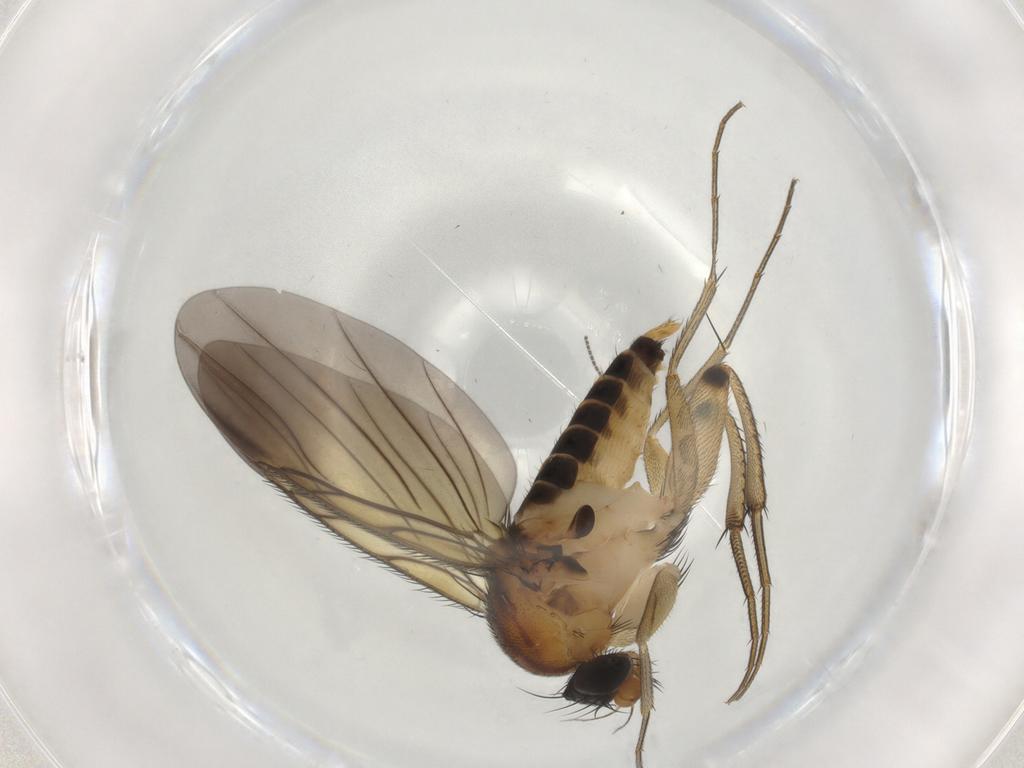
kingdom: Animalia
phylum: Arthropoda
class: Insecta
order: Diptera
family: Phoridae
